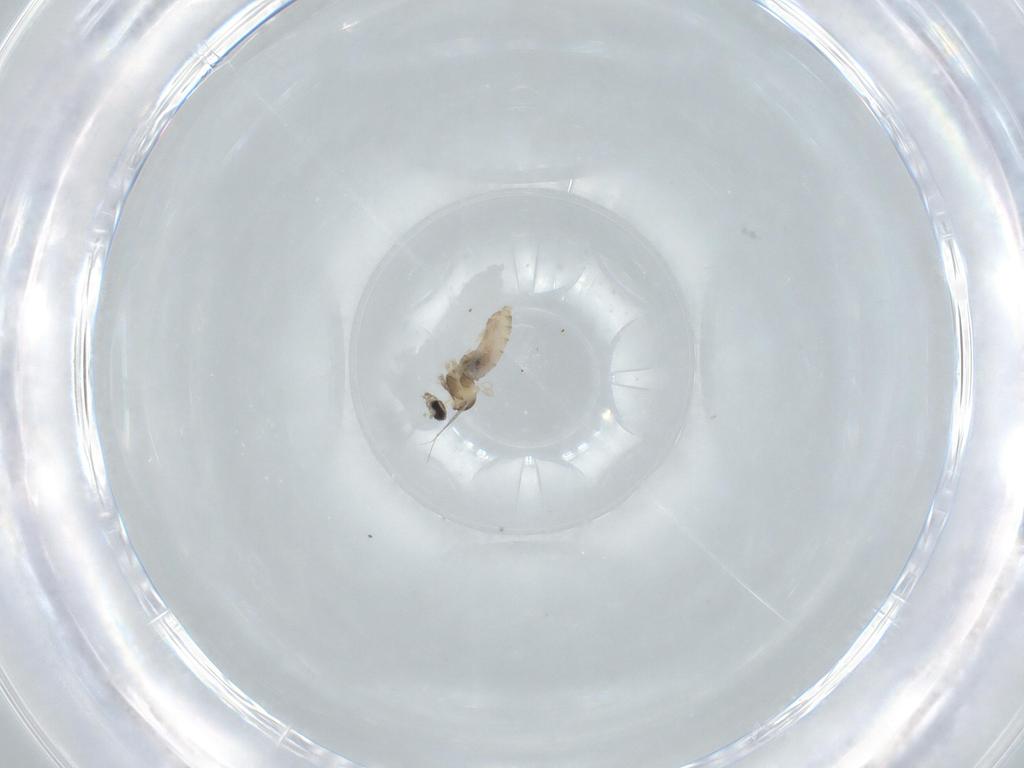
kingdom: Animalia
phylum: Arthropoda
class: Insecta
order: Diptera
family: Cecidomyiidae
